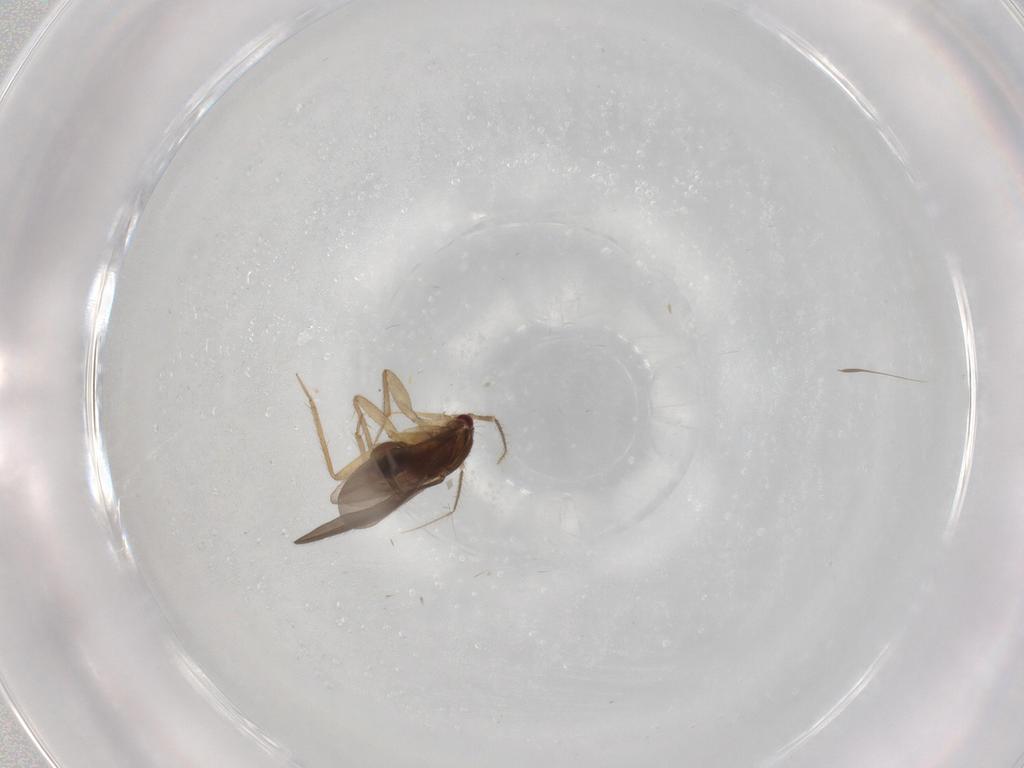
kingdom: Animalia
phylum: Arthropoda
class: Insecta
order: Hemiptera
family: Ceratocombidae
